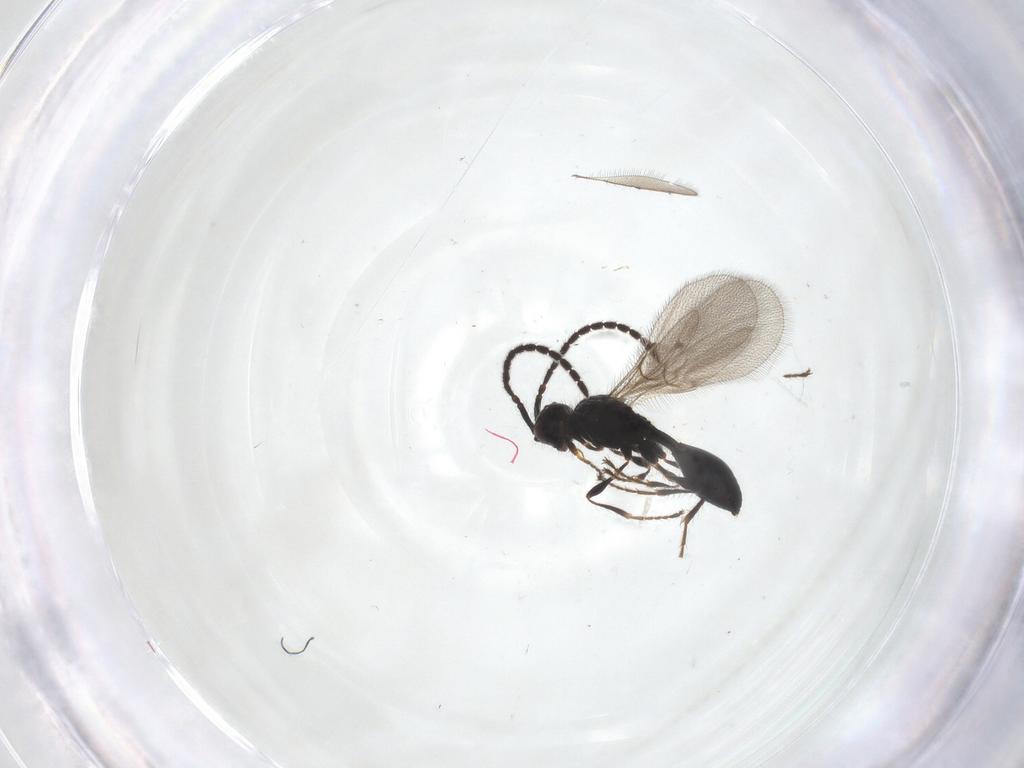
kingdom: Animalia
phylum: Arthropoda
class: Insecta
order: Hymenoptera
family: Diapriidae
